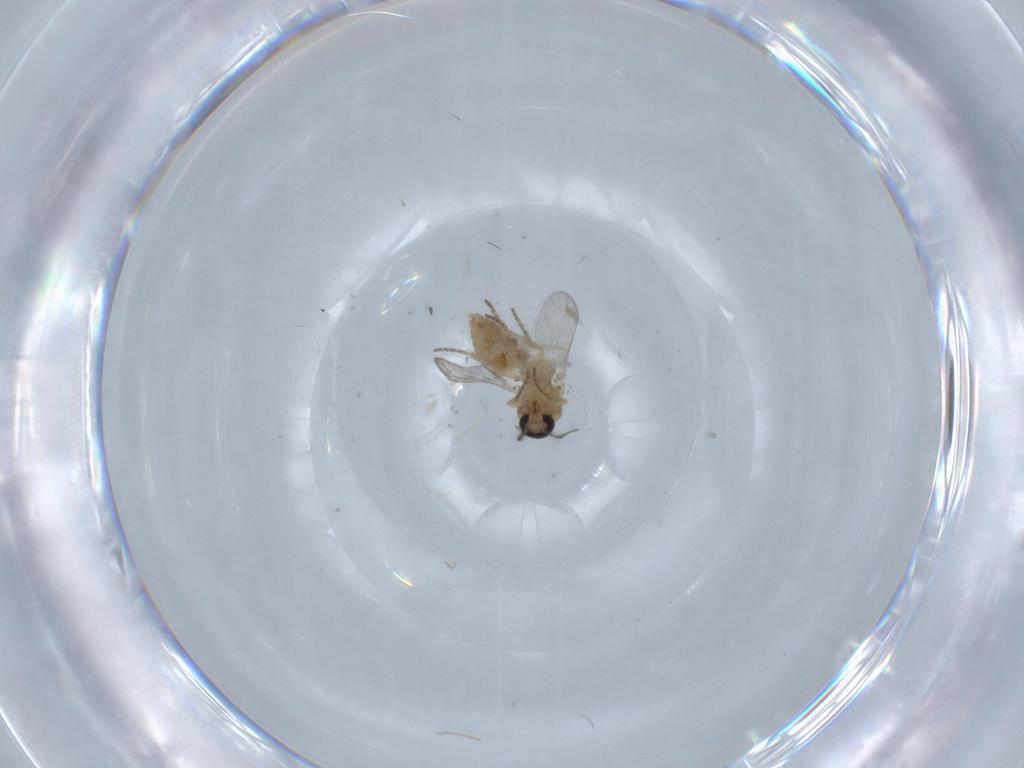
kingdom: Animalia
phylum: Arthropoda
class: Insecta
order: Diptera
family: Ceratopogonidae
